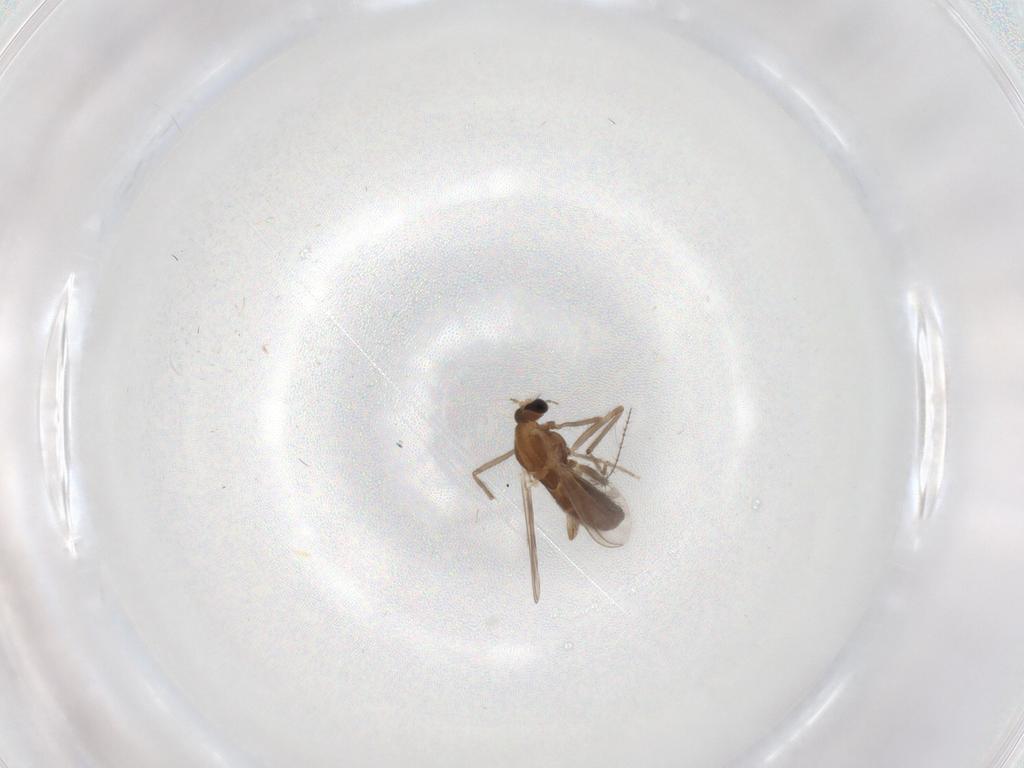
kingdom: Animalia
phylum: Arthropoda
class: Insecta
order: Diptera
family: Chironomidae
